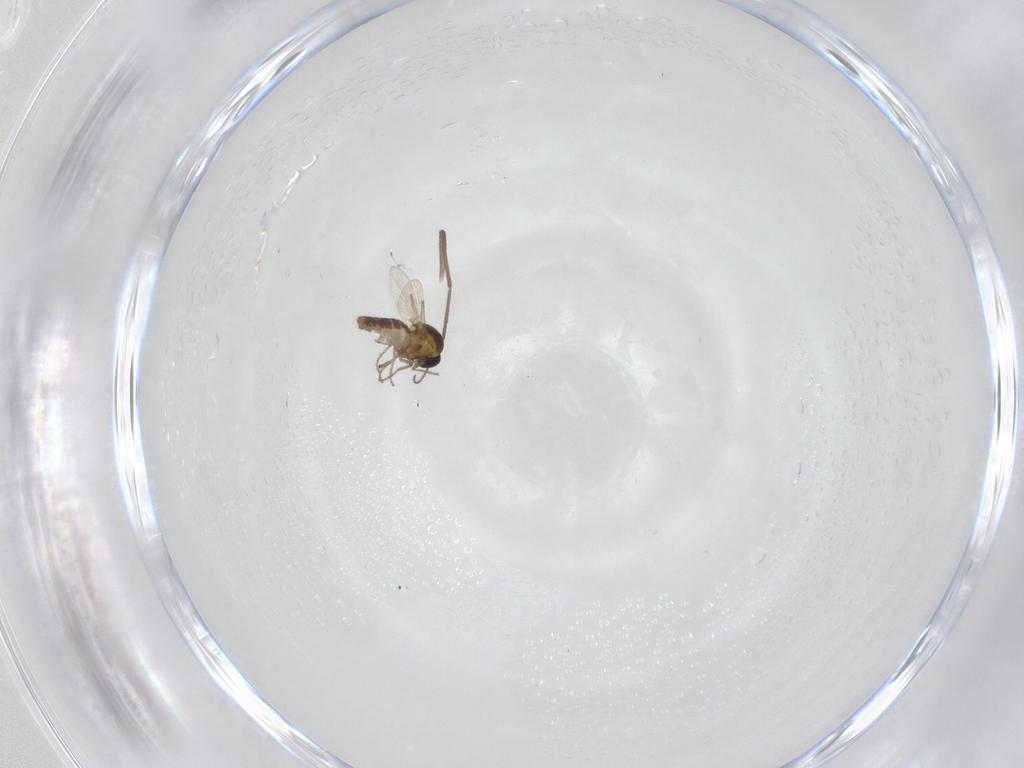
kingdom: Animalia
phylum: Arthropoda
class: Insecta
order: Diptera
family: Ceratopogonidae
